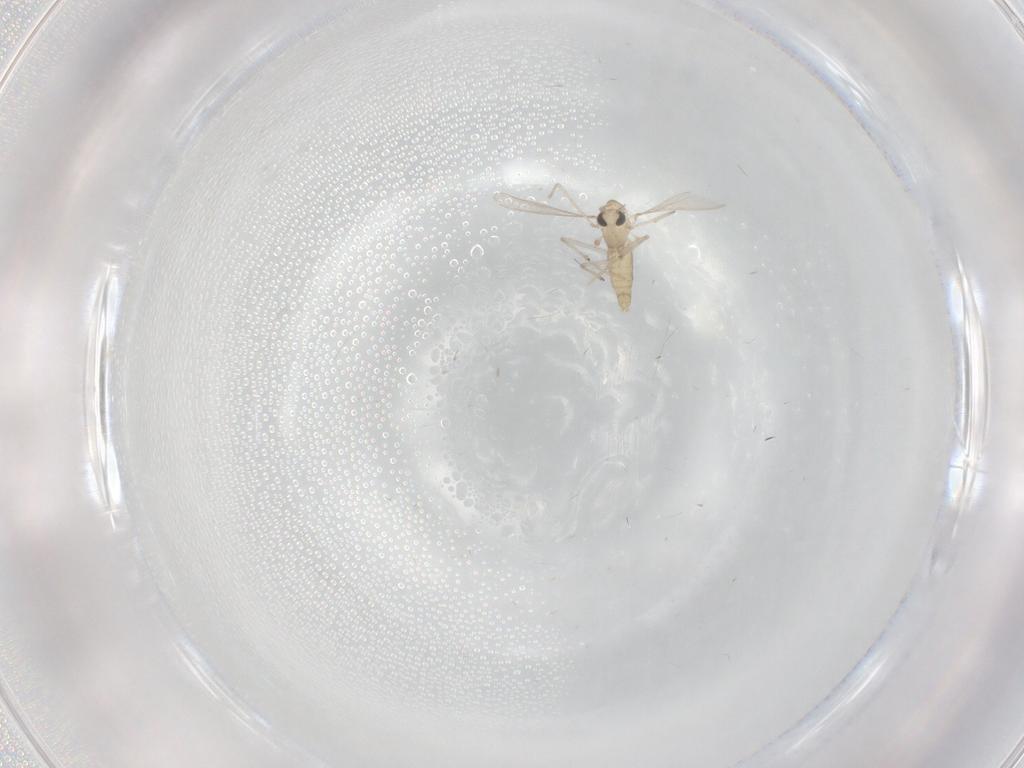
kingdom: Animalia
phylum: Arthropoda
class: Insecta
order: Diptera
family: Chironomidae
